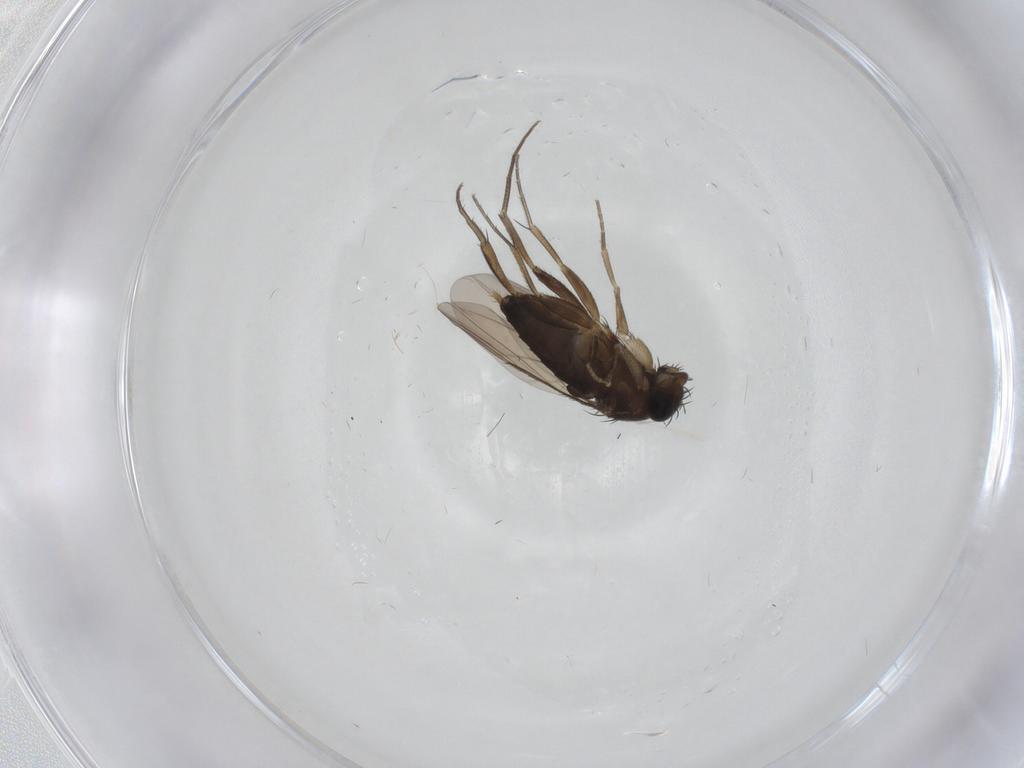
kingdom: Animalia
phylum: Arthropoda
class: Insecta
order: Diptera
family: Phoridae
